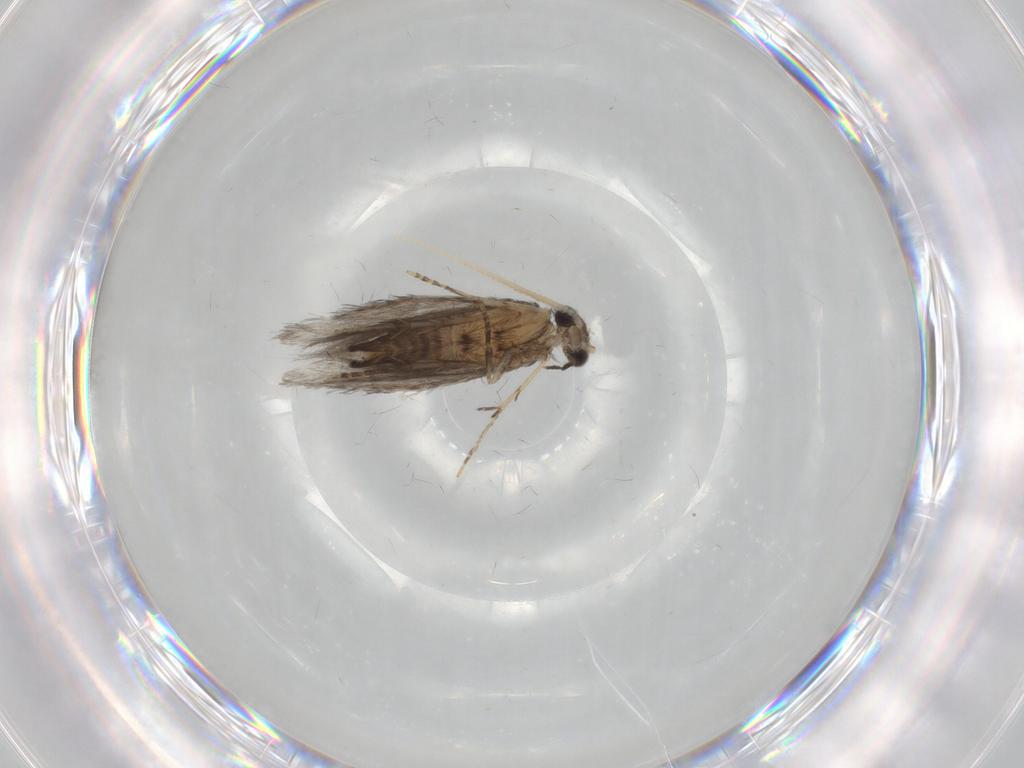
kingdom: Animalia
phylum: Arthropoda
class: Insecta
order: Trichoptera
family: Hydroptilidae
